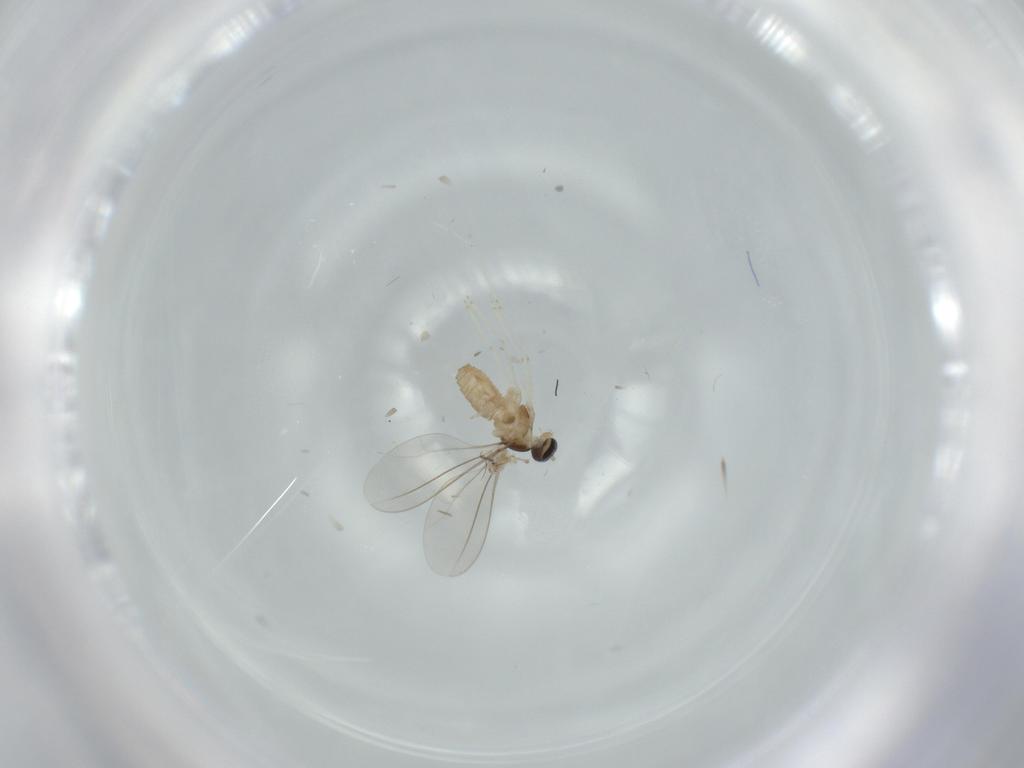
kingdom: Animalia
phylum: Arthropoda
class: Insecta
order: Diptera
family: Cecidomyiidae
